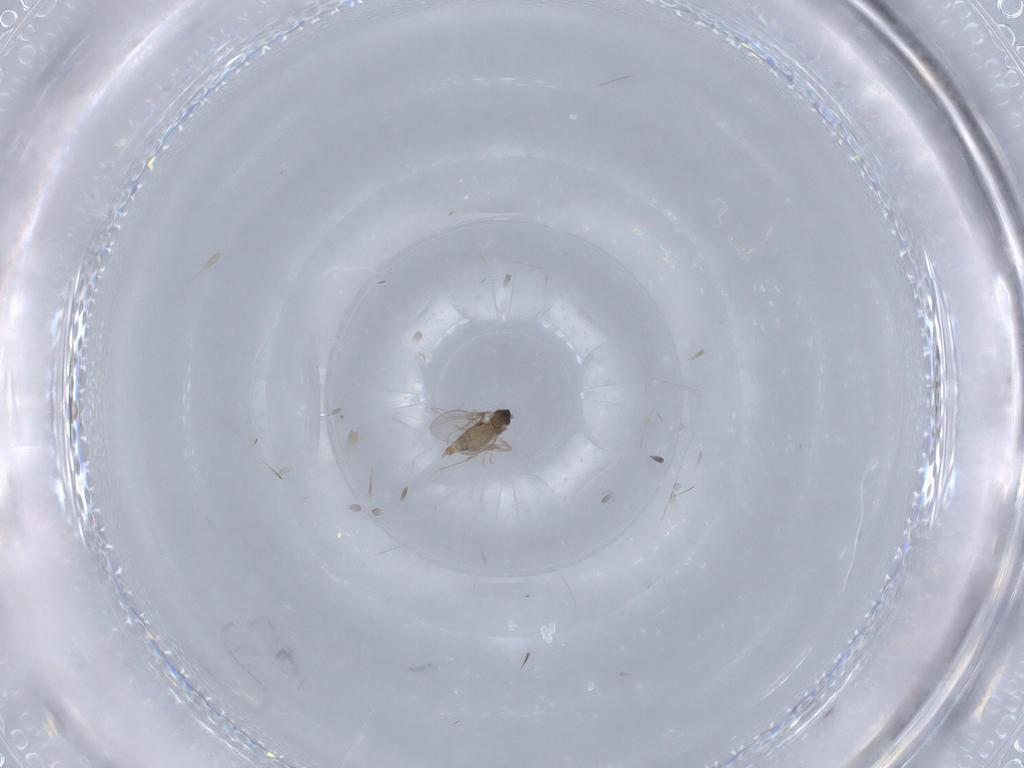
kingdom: Animalia
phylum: Arthropoda
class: Insecta
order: Diptera
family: Cecidomyiidae
